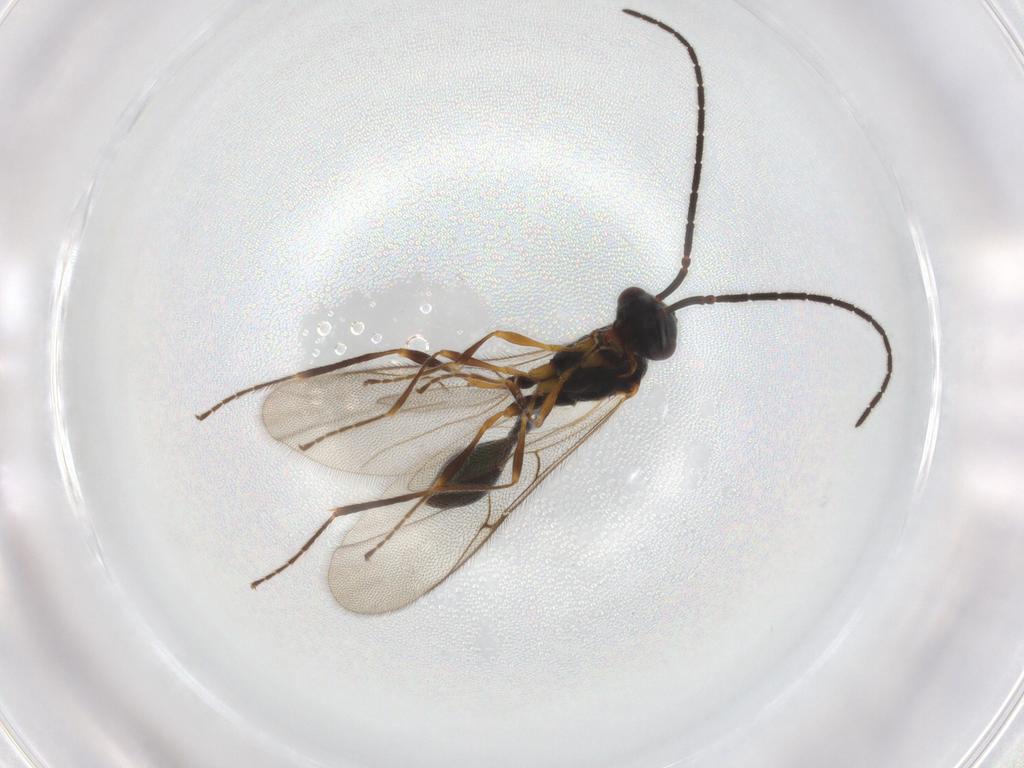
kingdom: Animalia
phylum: Arthropoda
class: Insecta
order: Hymenoptera
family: Diapriidae
